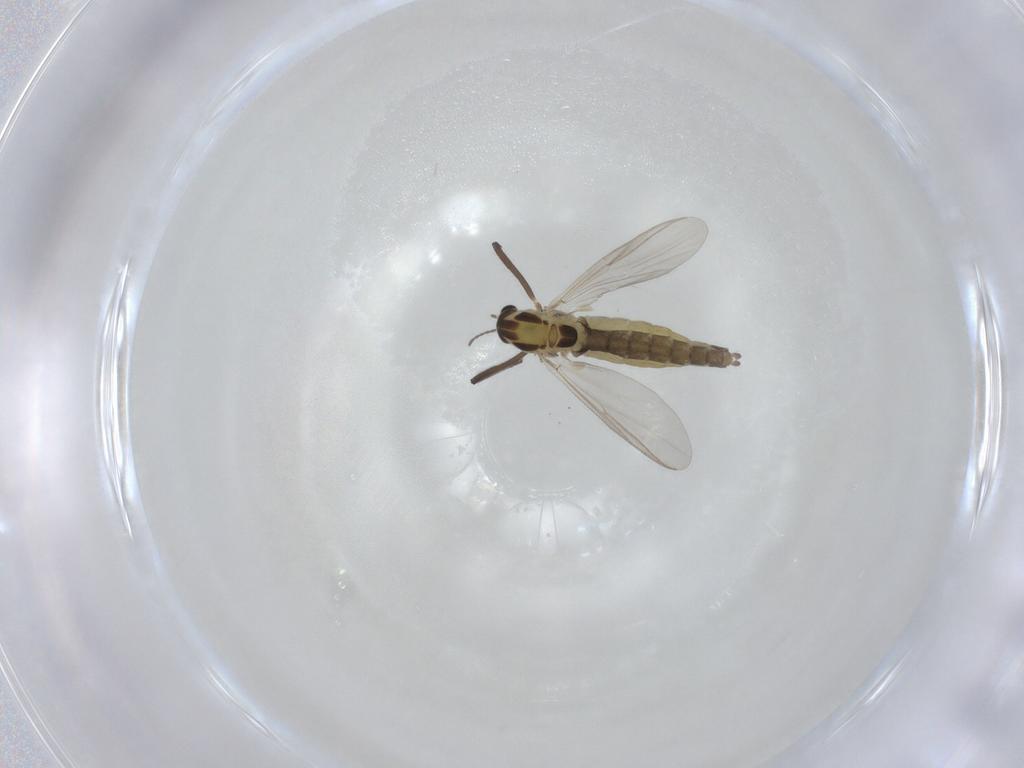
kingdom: Animalia
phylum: Arthropoda
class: Insecta
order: Diptera
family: Chironomidae
